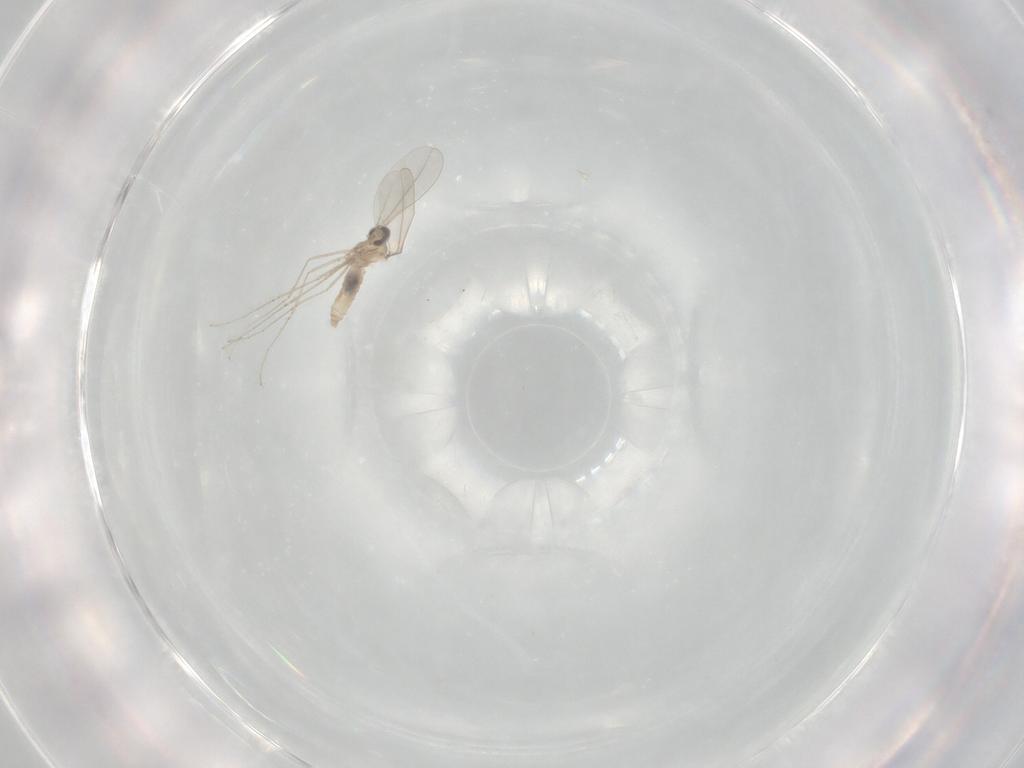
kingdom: Animalia
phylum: Arthropoda
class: Insecta
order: Diptera
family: Cecidomyiidae
